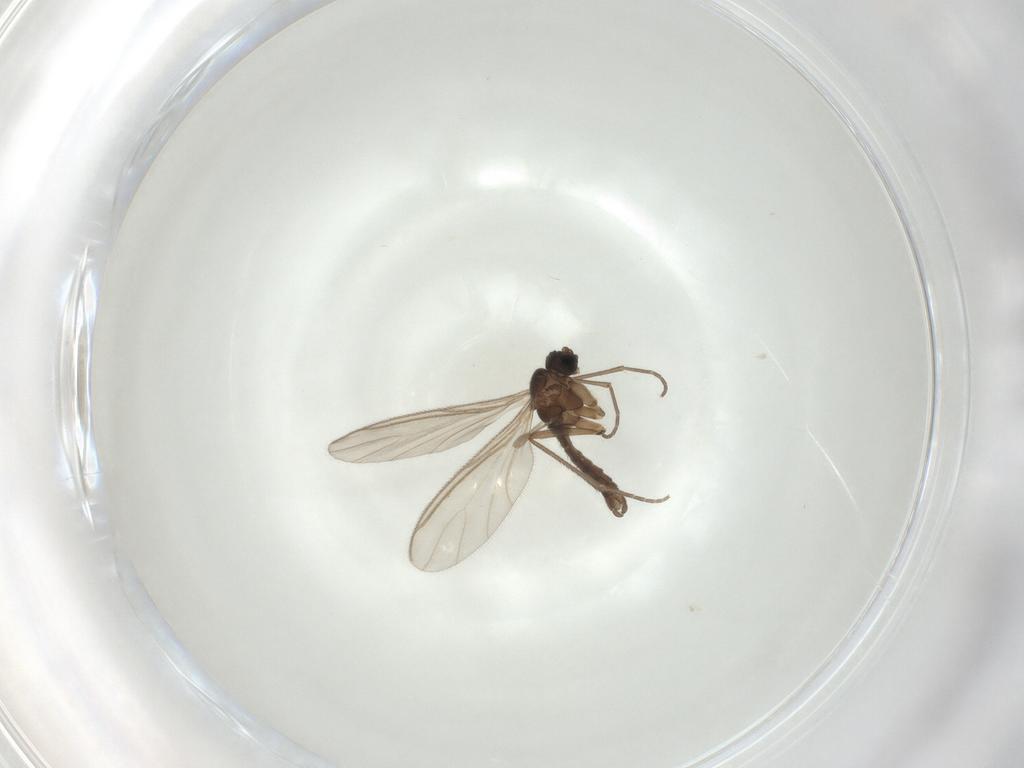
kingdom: Animalia
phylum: Arthropoda
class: Insecta
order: Diptera
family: Sciaridae
